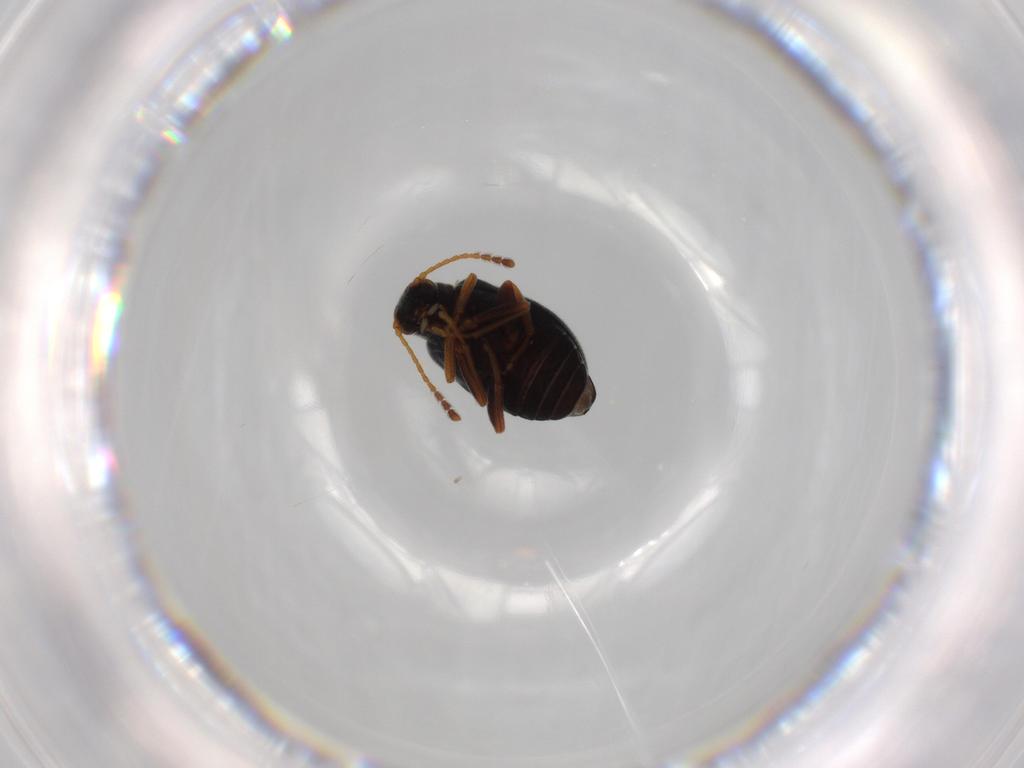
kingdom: Animalia
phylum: Arthropoda
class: Insecta
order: Coleoptera
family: Aderidae
